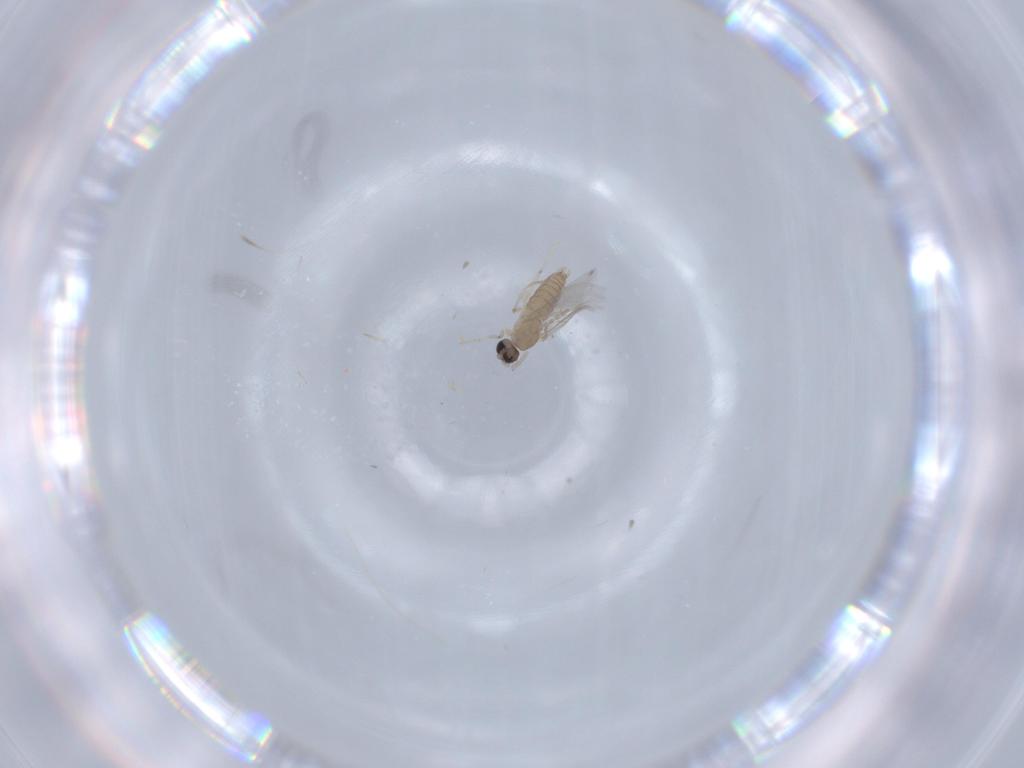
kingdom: Animalia
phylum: Arthropoda
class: Insecta
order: Diptera
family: Cecidomyiidae
